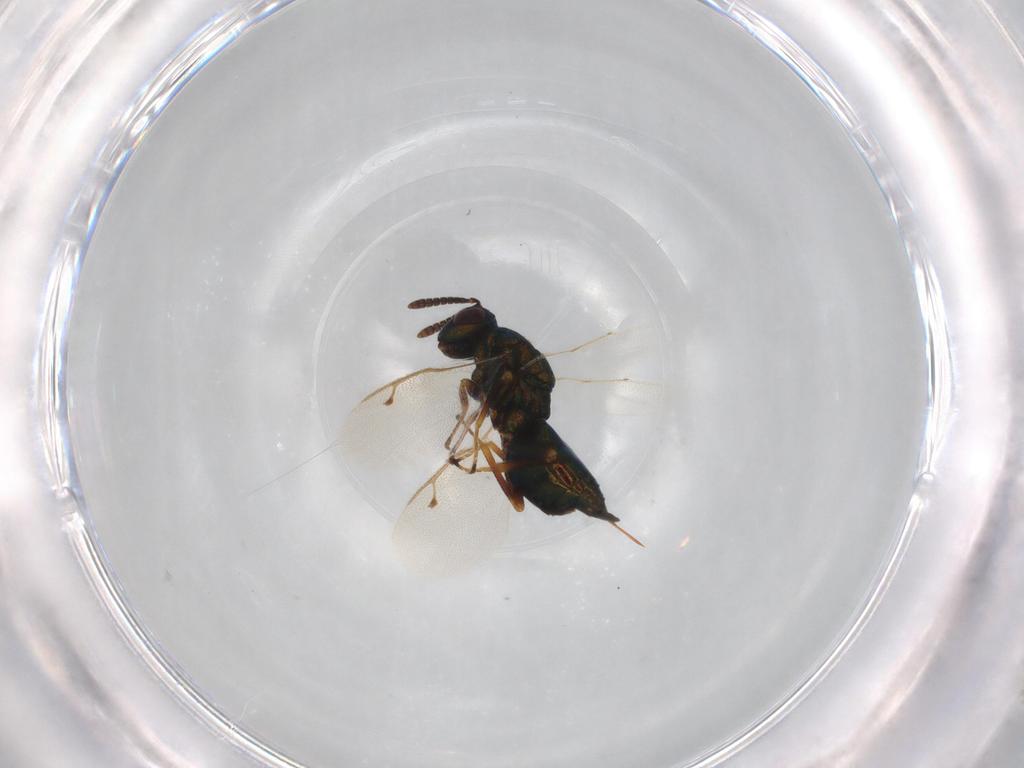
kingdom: Animalia
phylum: Arthropoda
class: Insecta
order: Hymenoptera
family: Pteromalidae
